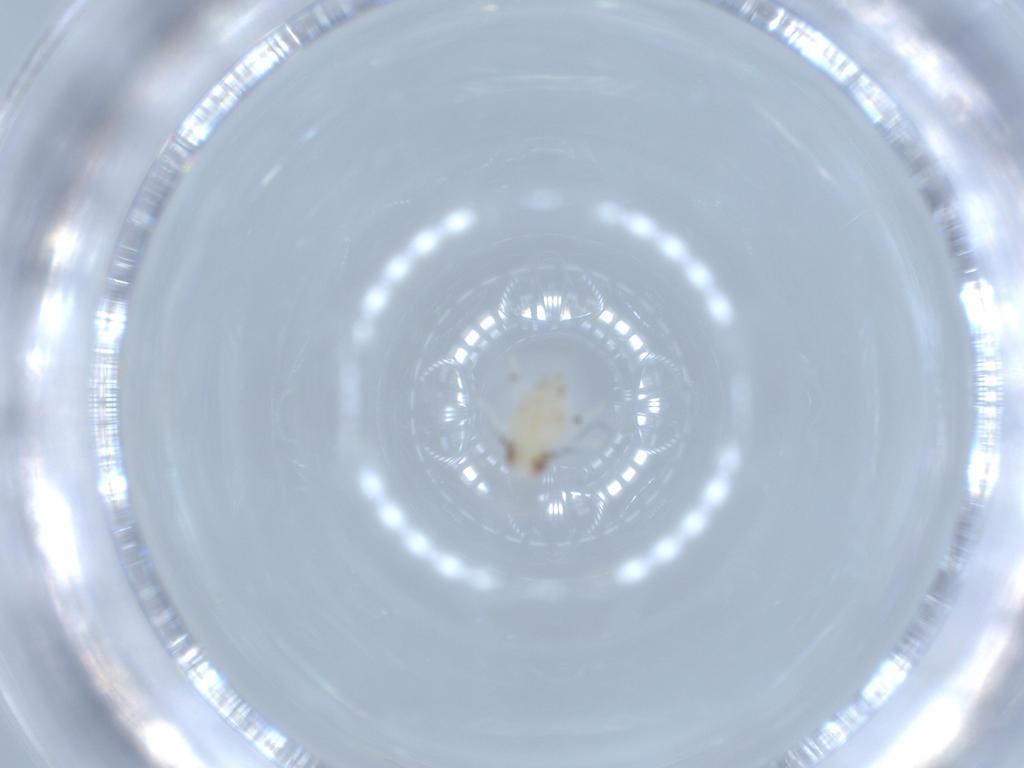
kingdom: Animalia
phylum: Arthropoda
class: Insecta
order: Hemiptera
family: Nogodinidae
